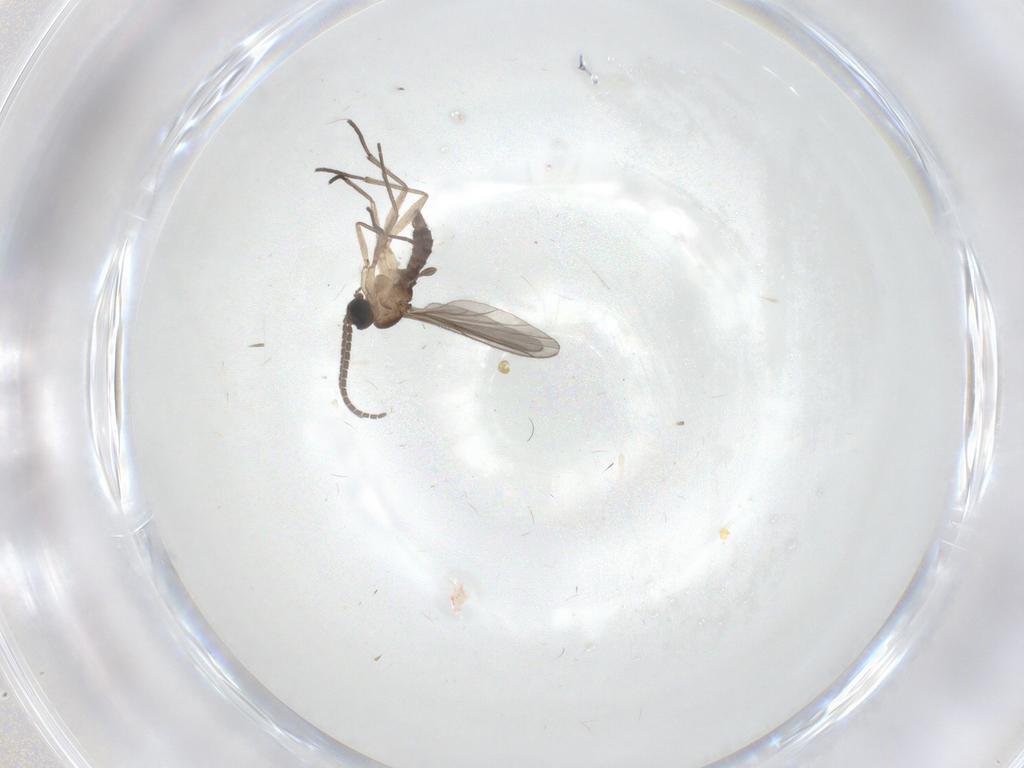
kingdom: Animalia
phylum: Arthropoda
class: Insecta
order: Diptera
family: Sciaridae
